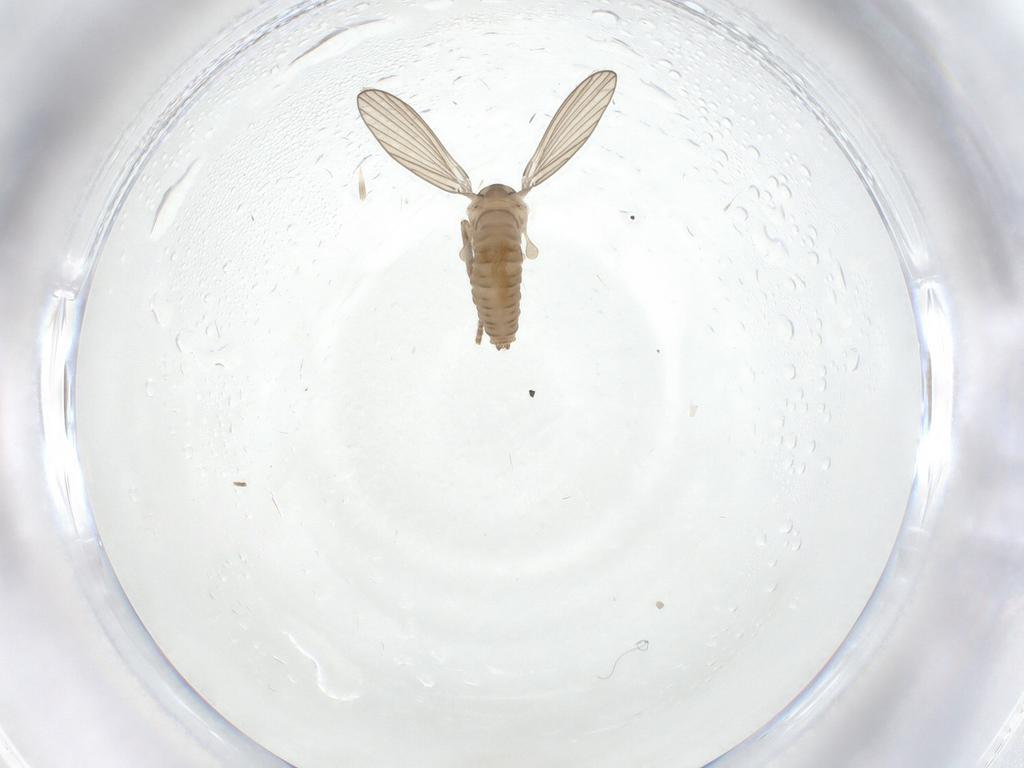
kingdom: Animalia
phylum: Arthropoda
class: Insecta
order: Diptera
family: Psychodidae
